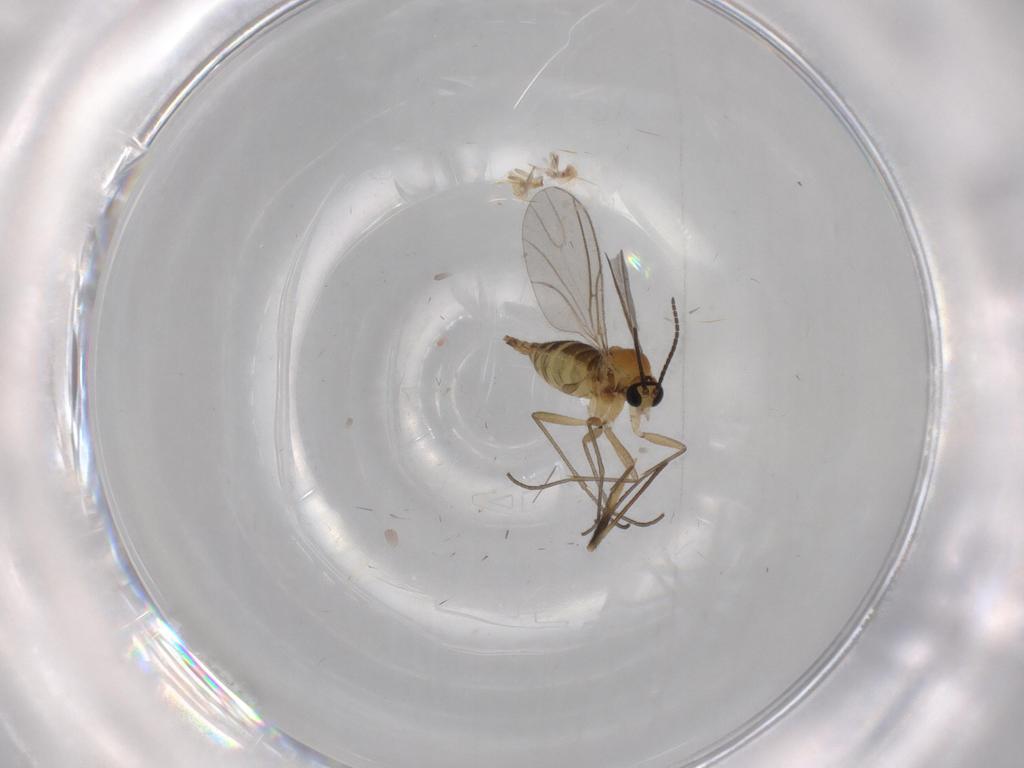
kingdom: Animalia
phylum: Arthropoda
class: Insecta
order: Diptera
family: Sciaridae
